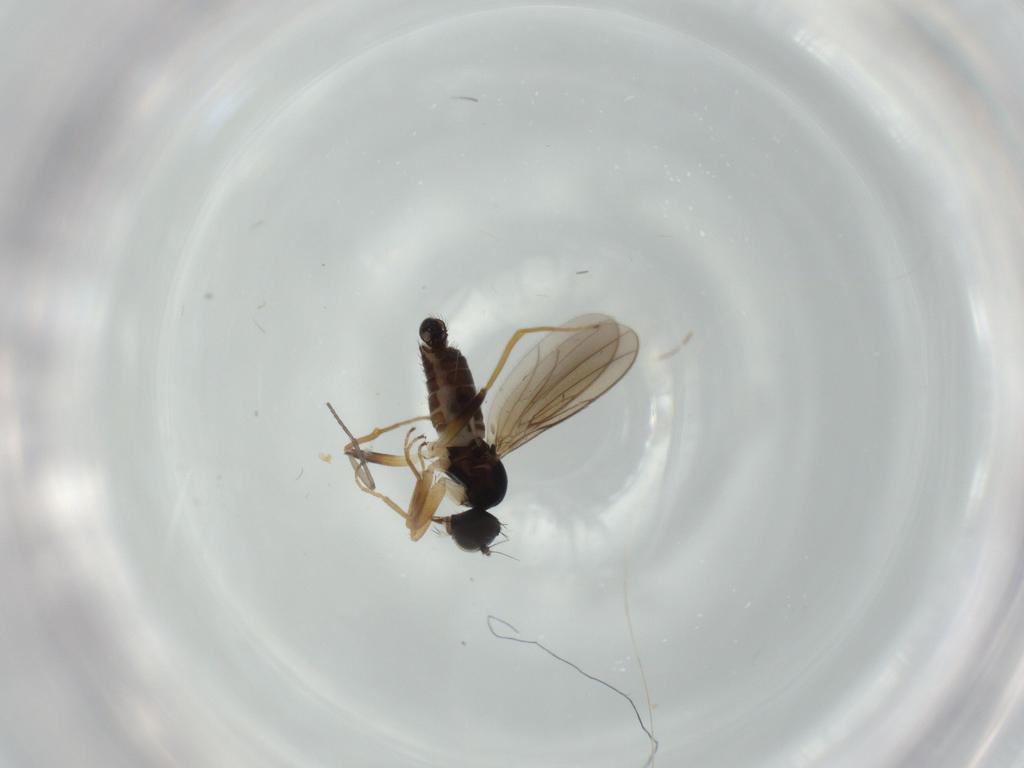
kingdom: Animalia
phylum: Arthropoda
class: Insecta
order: Diptera
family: Hybotidae
